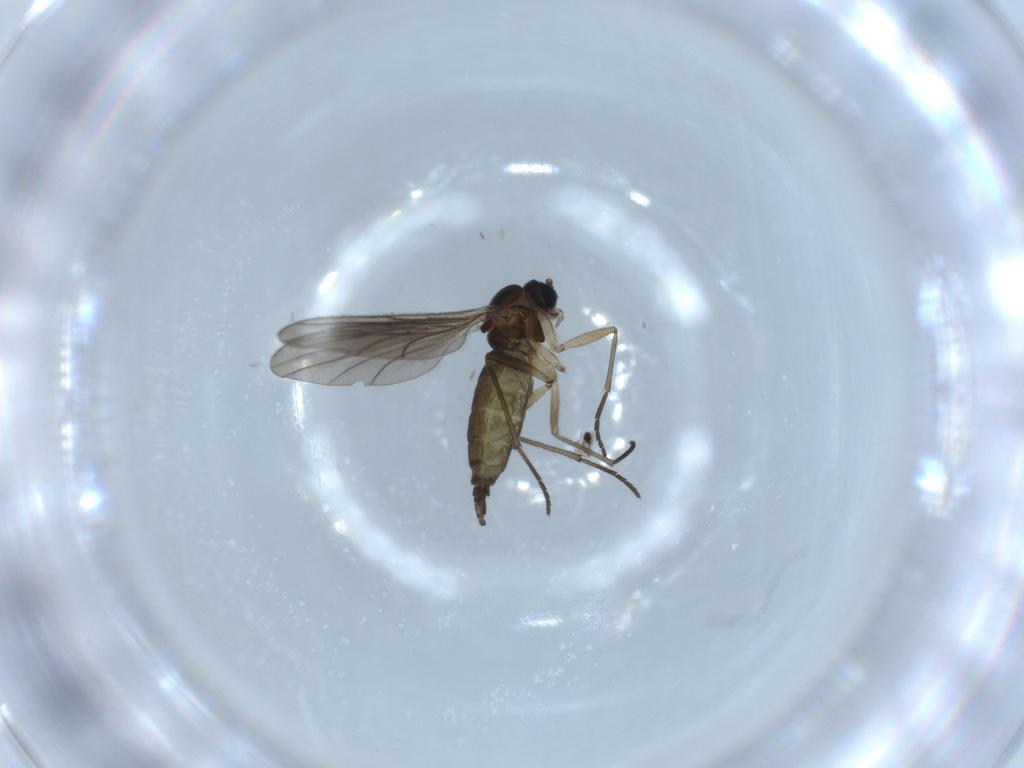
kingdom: Animalia
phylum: Arthropoda
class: Insecta
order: Diptera
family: Sciaridae
